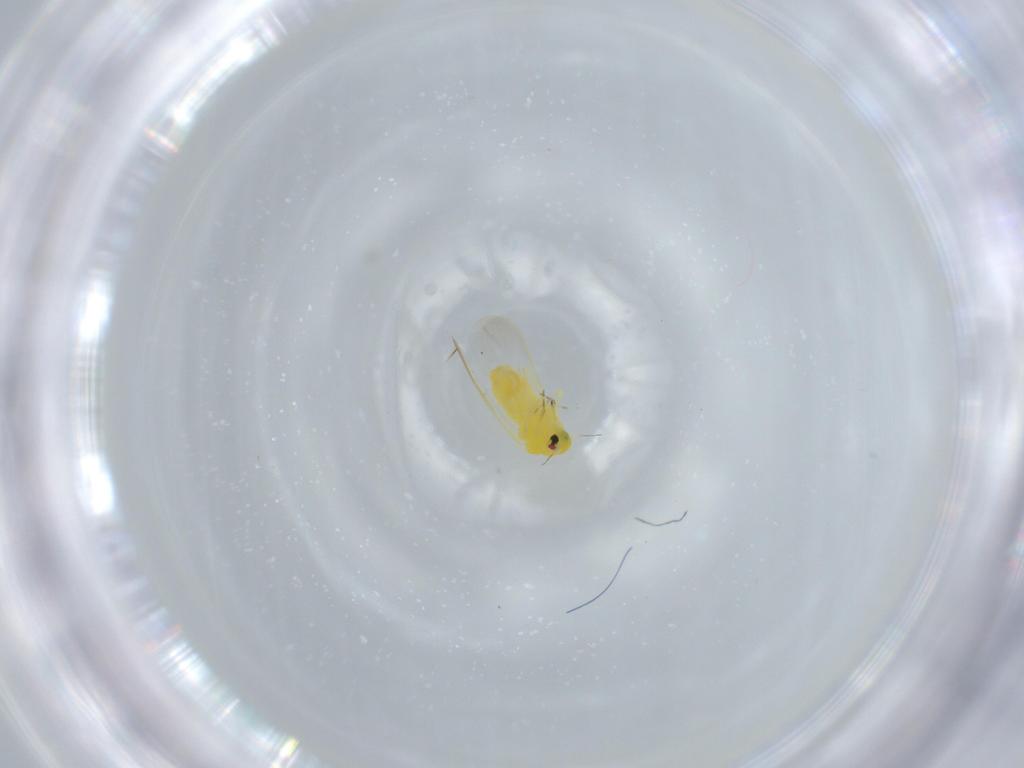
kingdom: Animalia
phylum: Arthropoda
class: Insecta
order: Hemiptera
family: Aleyrodidae
